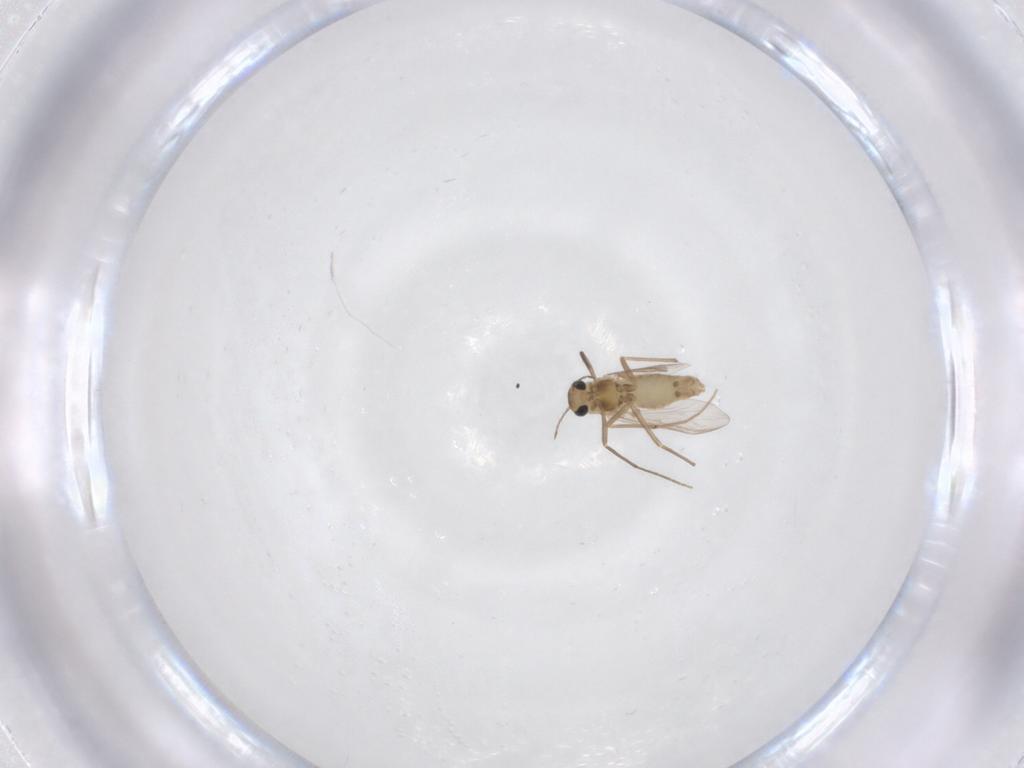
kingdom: Animalia
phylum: Arthropoda
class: Insecta
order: Diptera
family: Chironomidae
